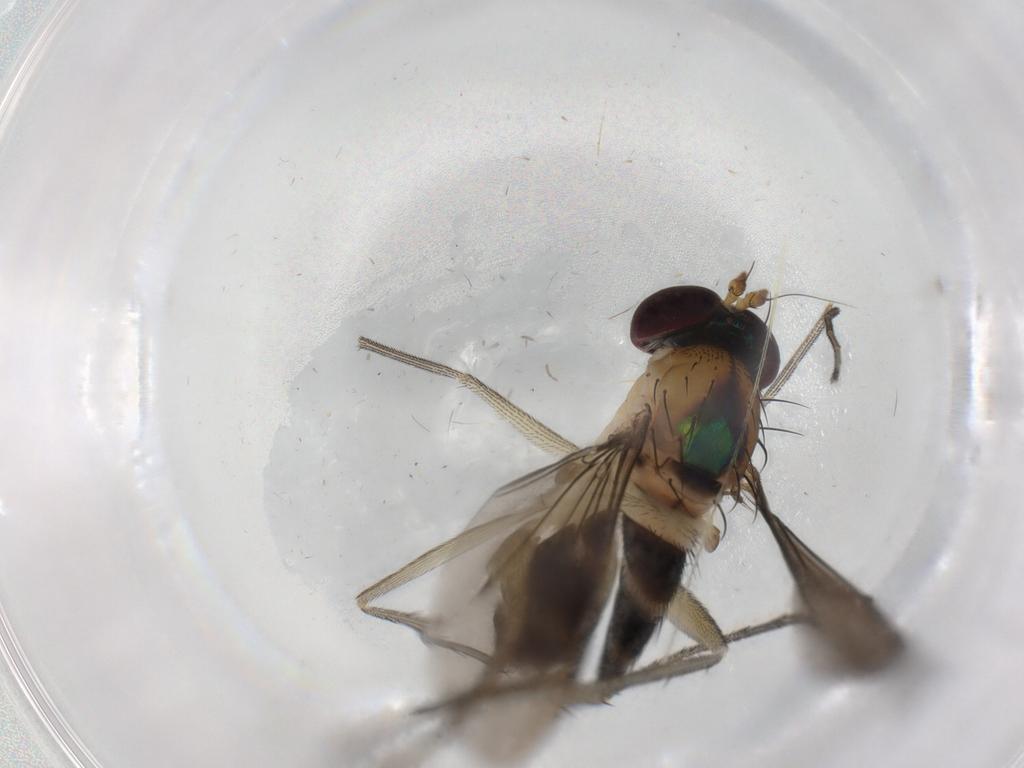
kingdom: Animalia
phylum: Arthropoda
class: Insecta
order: Diptera
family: Dolichopodidae
